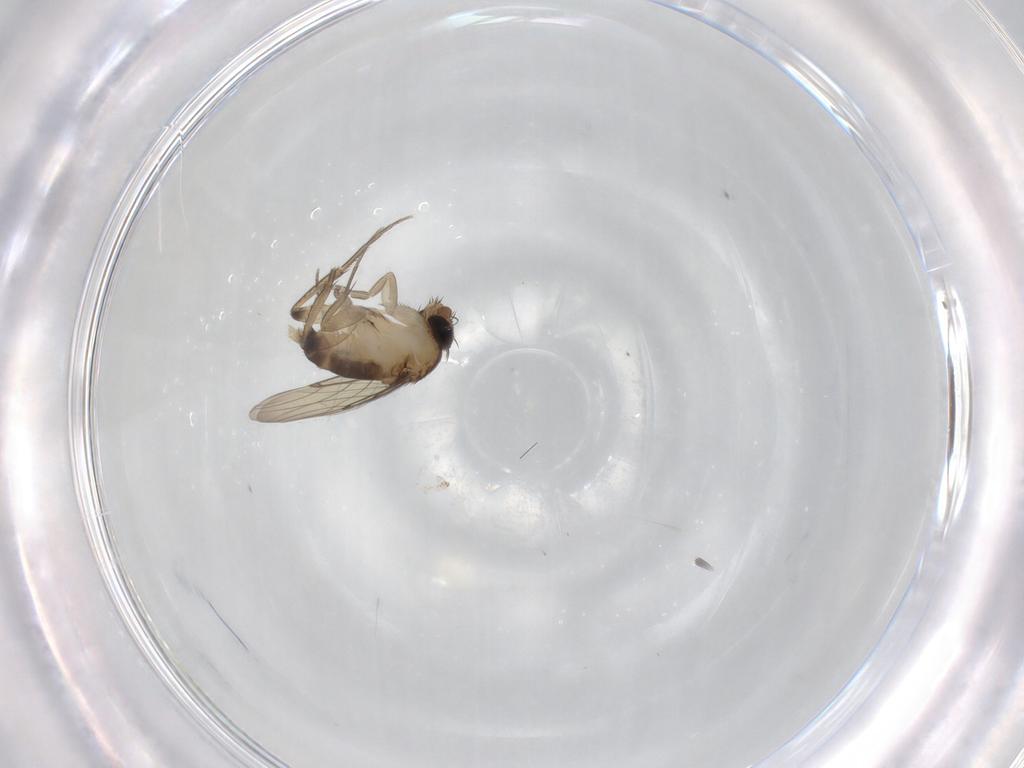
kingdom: Animalia
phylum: Arthropoda
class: Insecta
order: Diptera
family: Phoridae
